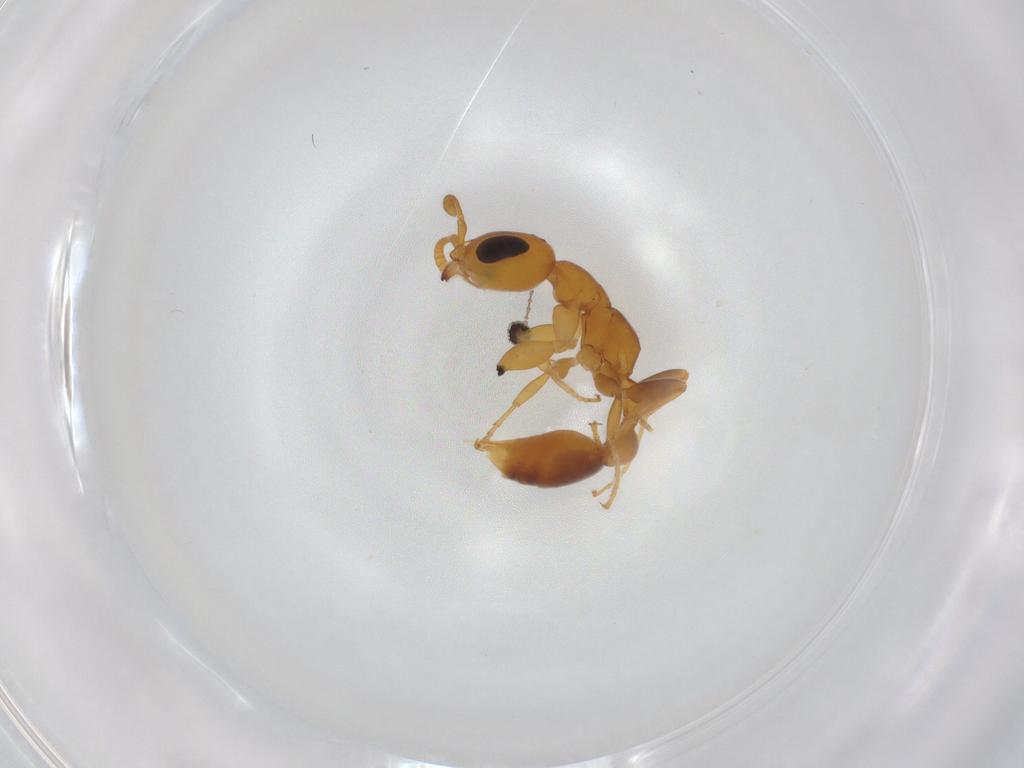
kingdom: Animalia
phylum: Arthropoda
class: Insecta
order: Hymenoptera
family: Formicidae
